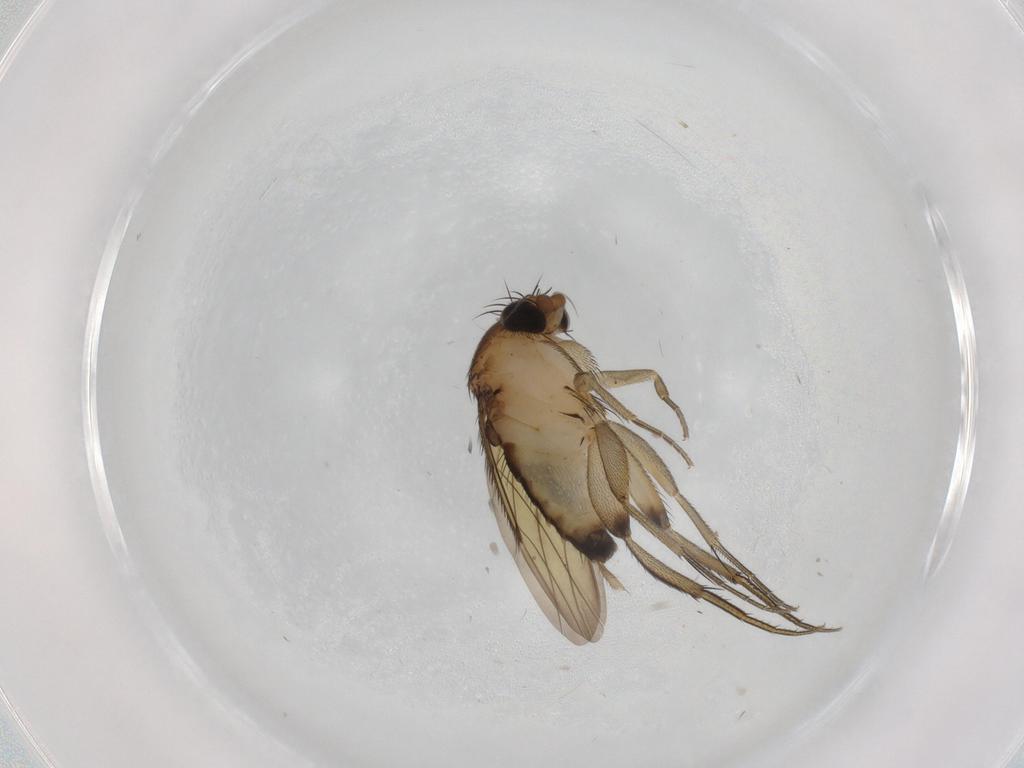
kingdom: Animalia
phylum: Arthropoda
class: Insecta
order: Diptera
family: Phoridae
